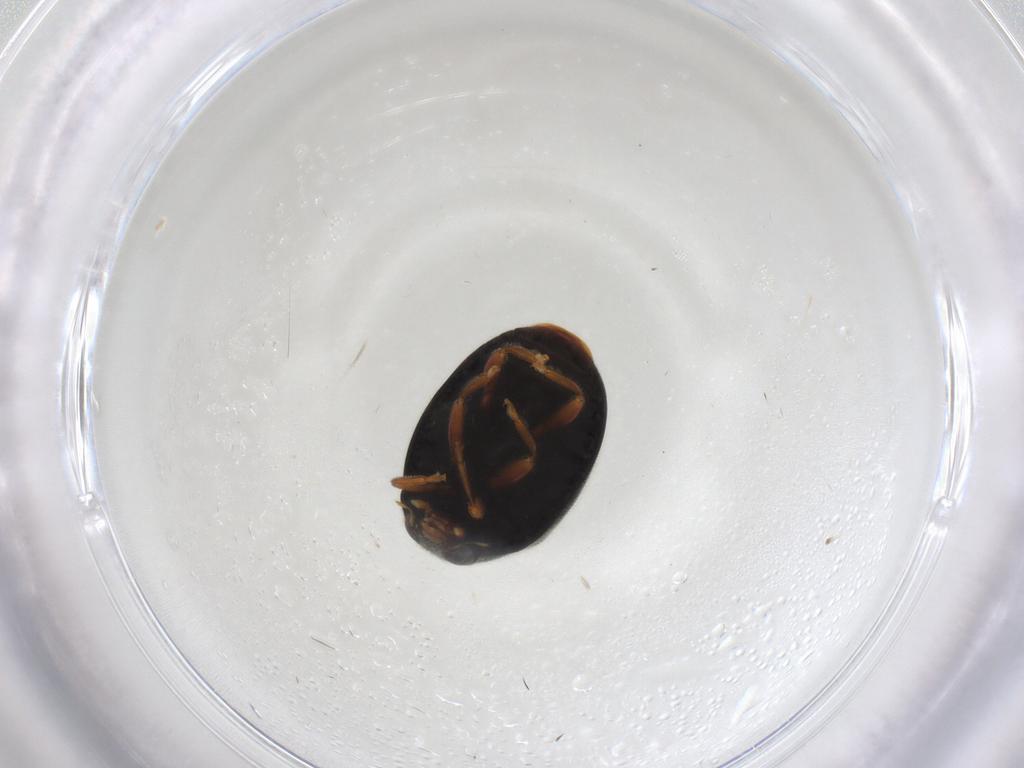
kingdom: Animalia
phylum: Arthropoda
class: Insecta
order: Coleoptera
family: Coccinellidae
